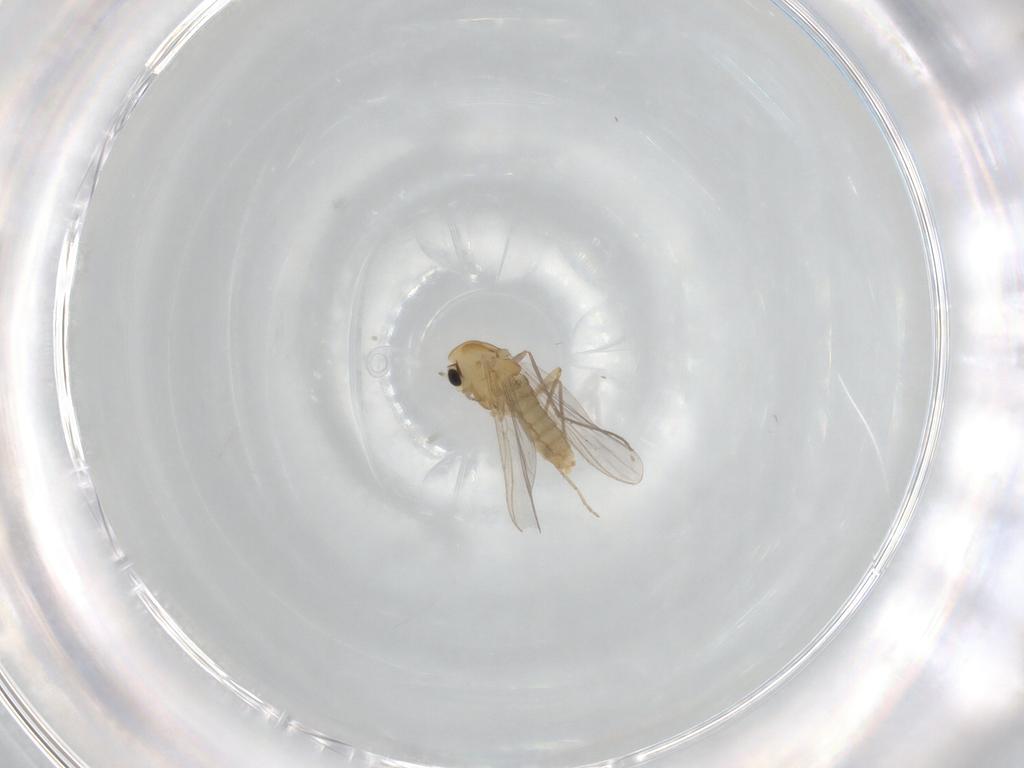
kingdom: Animalia
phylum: Arthropoda
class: Insecta
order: Diptera
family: Chironomidae
